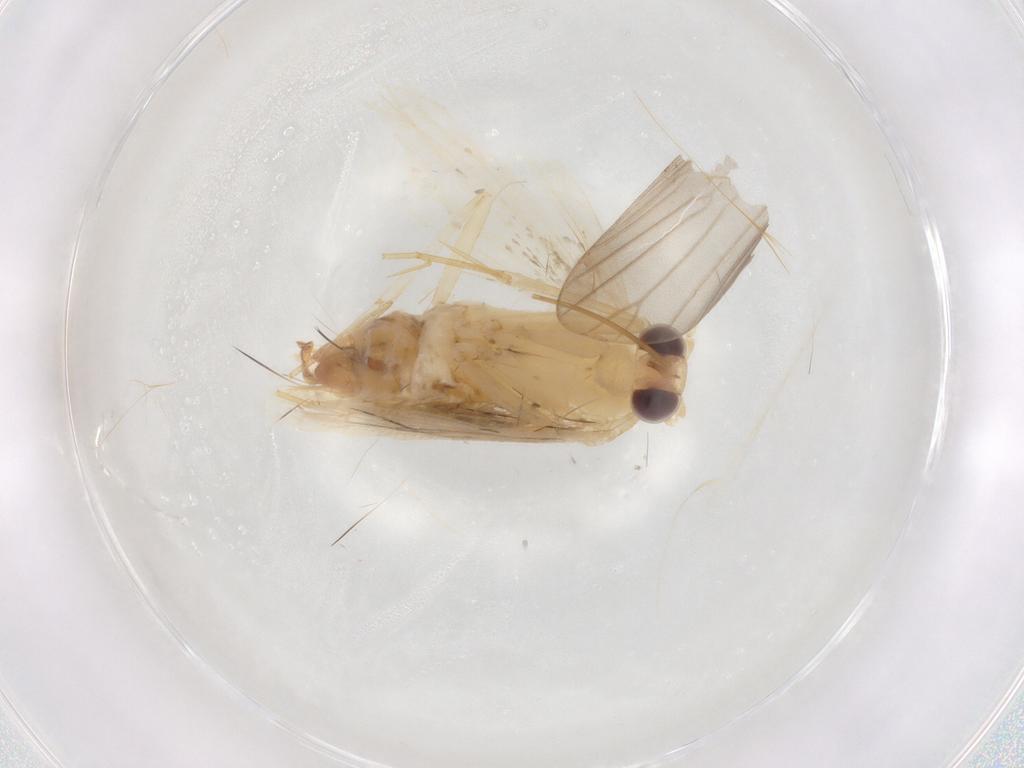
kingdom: Animalia
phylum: Arthropoda
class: Insecta
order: Lepidoptera
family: Erebidae
